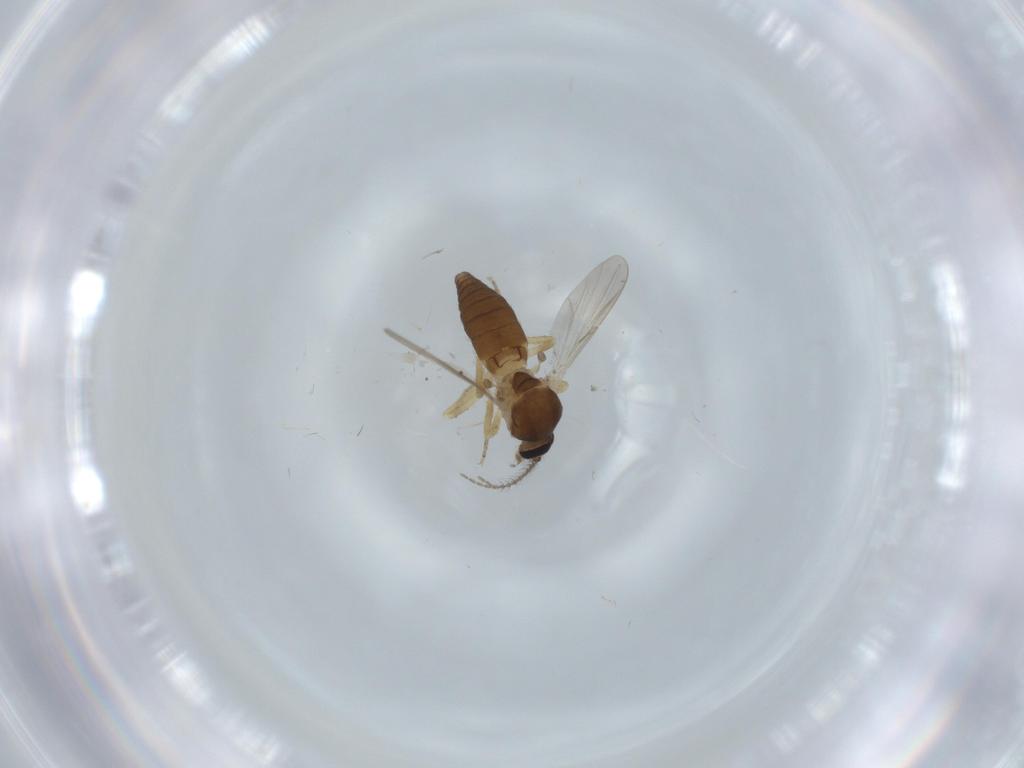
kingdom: Animalia
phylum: Arthropoda
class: Insecta
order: Diptera
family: Ceratopogonidae
